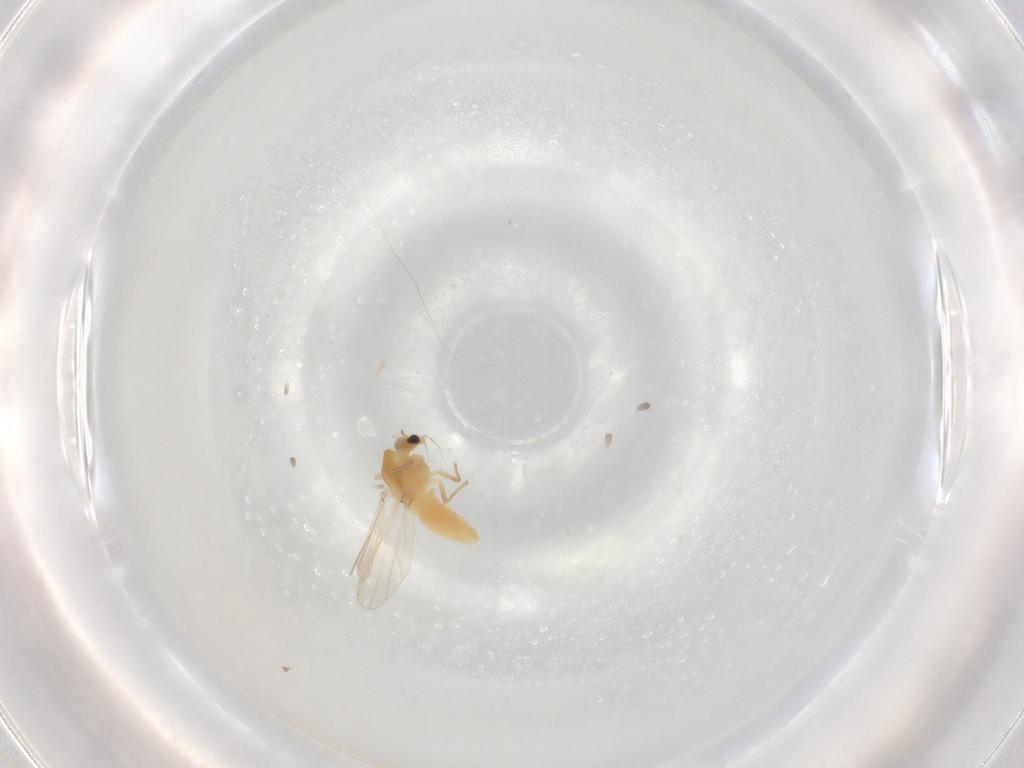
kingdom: Animalia
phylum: Arthropoda
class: Insecta
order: Diptera
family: Chironomidae
